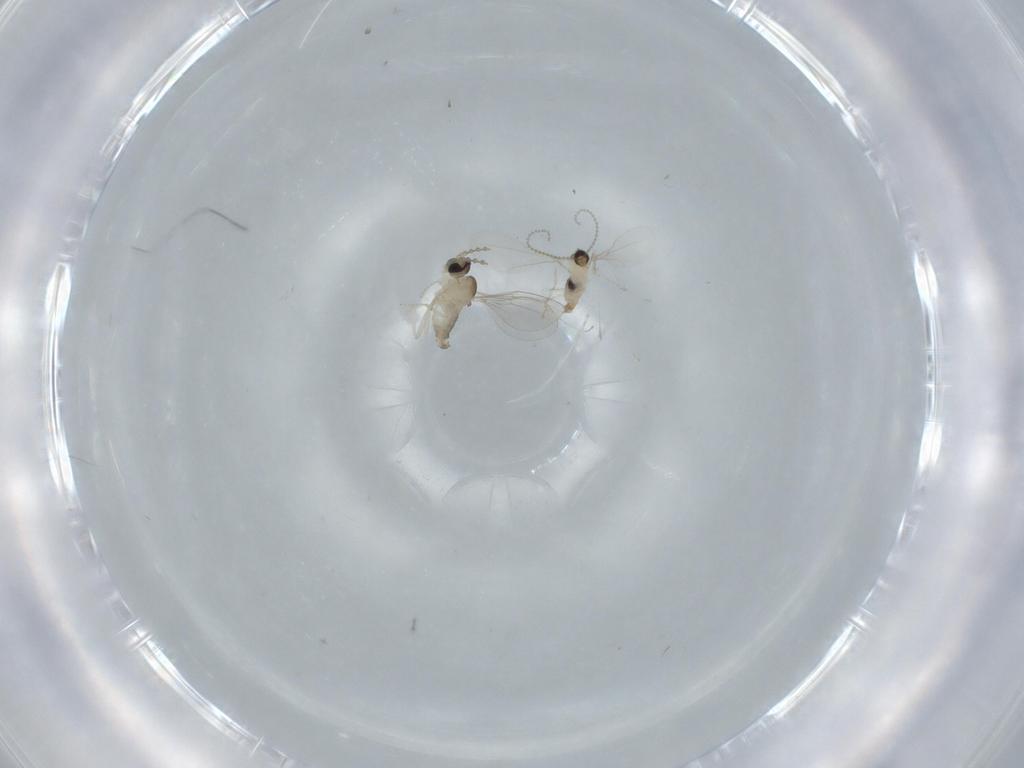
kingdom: Animalia
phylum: Arthropoda
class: Insecta
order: Diptera
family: Cecidomyiidae
